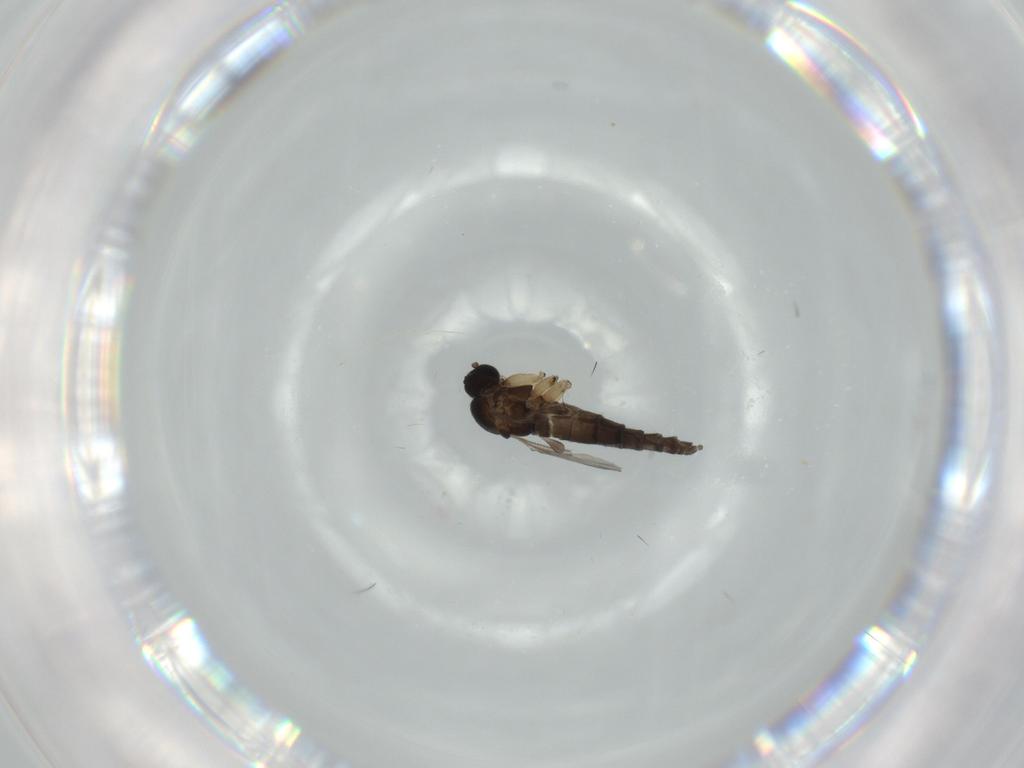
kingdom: Animalia
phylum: Arthropoda
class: Insecta
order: Diptera
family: Sciaridae
